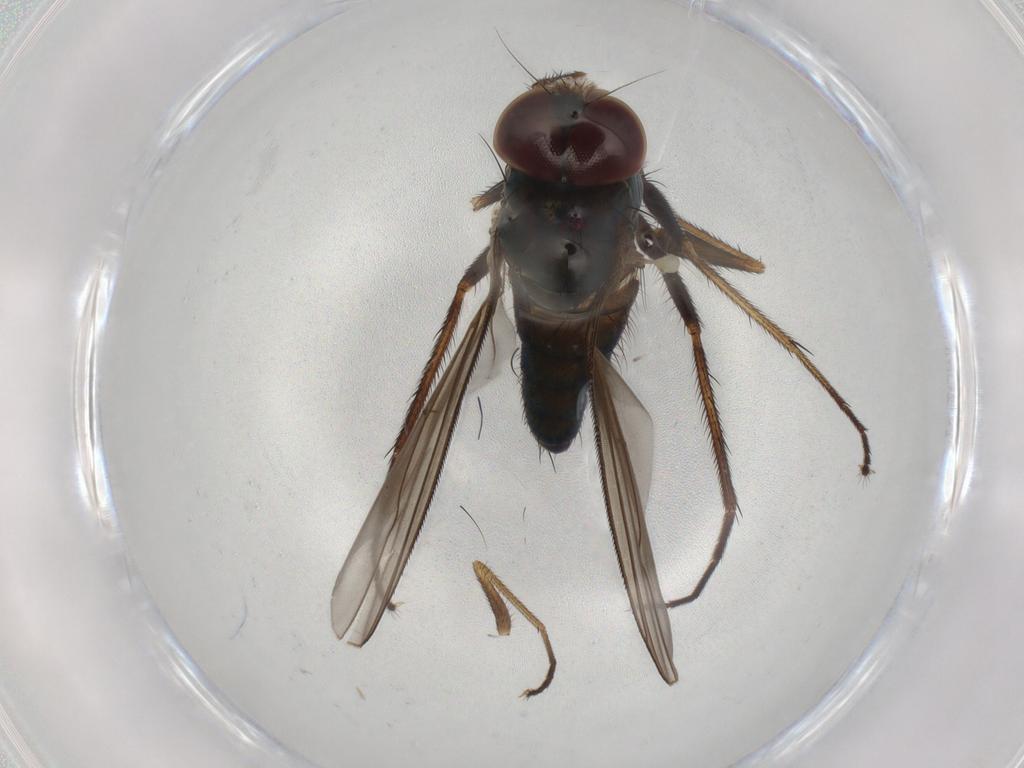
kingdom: Animalia
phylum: Arthropoda
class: Insecta
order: Diptera
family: Dolichopodidae
